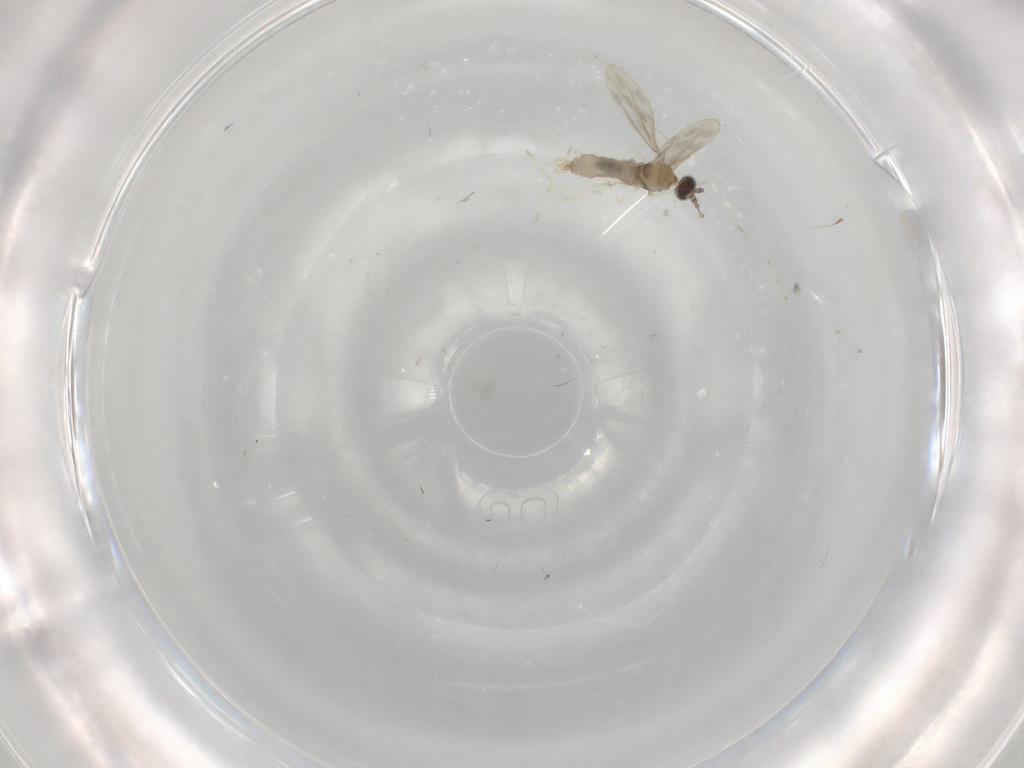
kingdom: Animalia
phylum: Arthropoda
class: Insecta
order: Diptera
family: Cecidomyiidae
